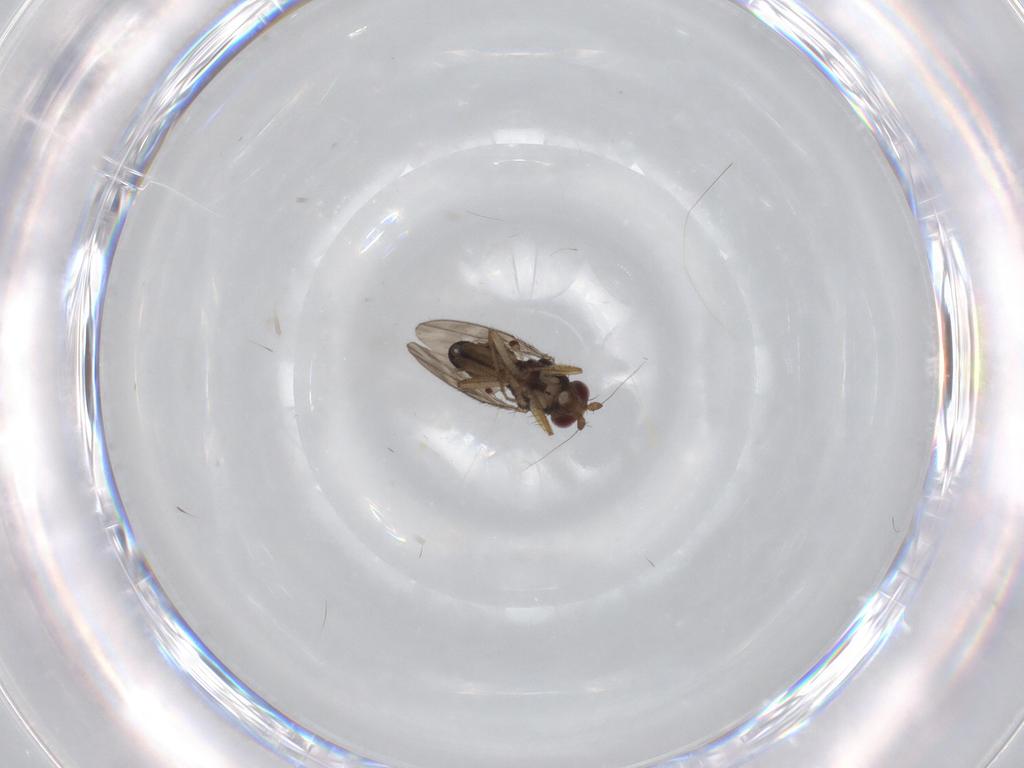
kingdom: Animalia
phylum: Arthropoda
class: Insecta
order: Diptera
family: Sphaeroceridae
